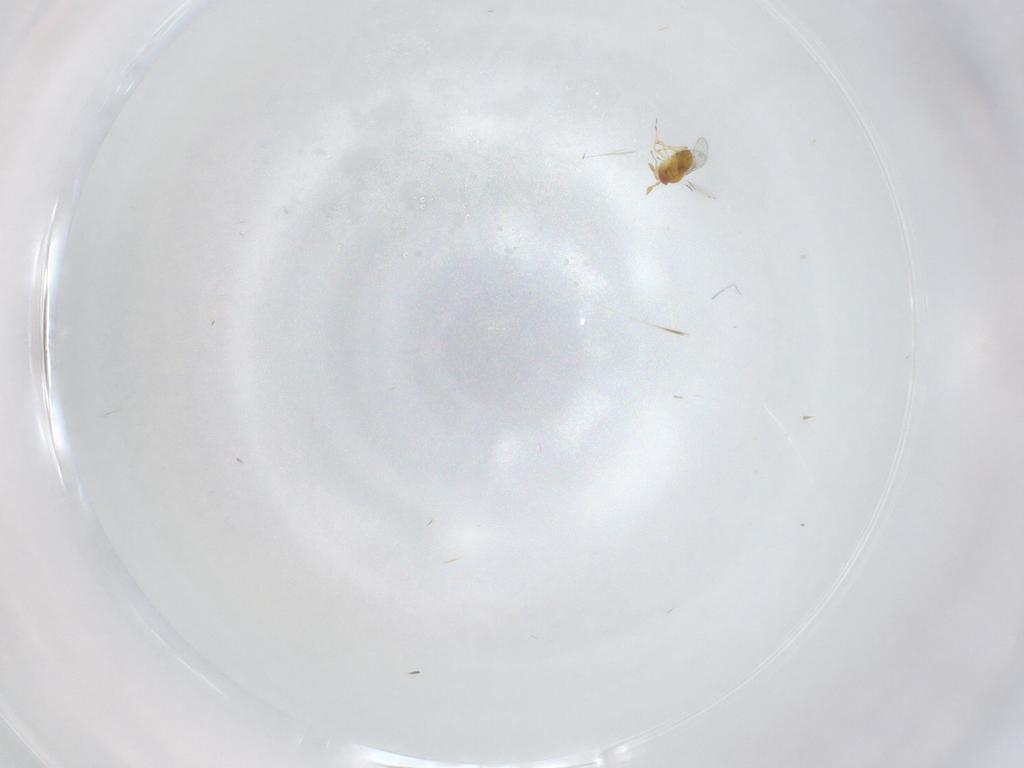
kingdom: Animalia
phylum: Arthropoda
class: Insecta
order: Hymenoptera
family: Trichogrammatidae
